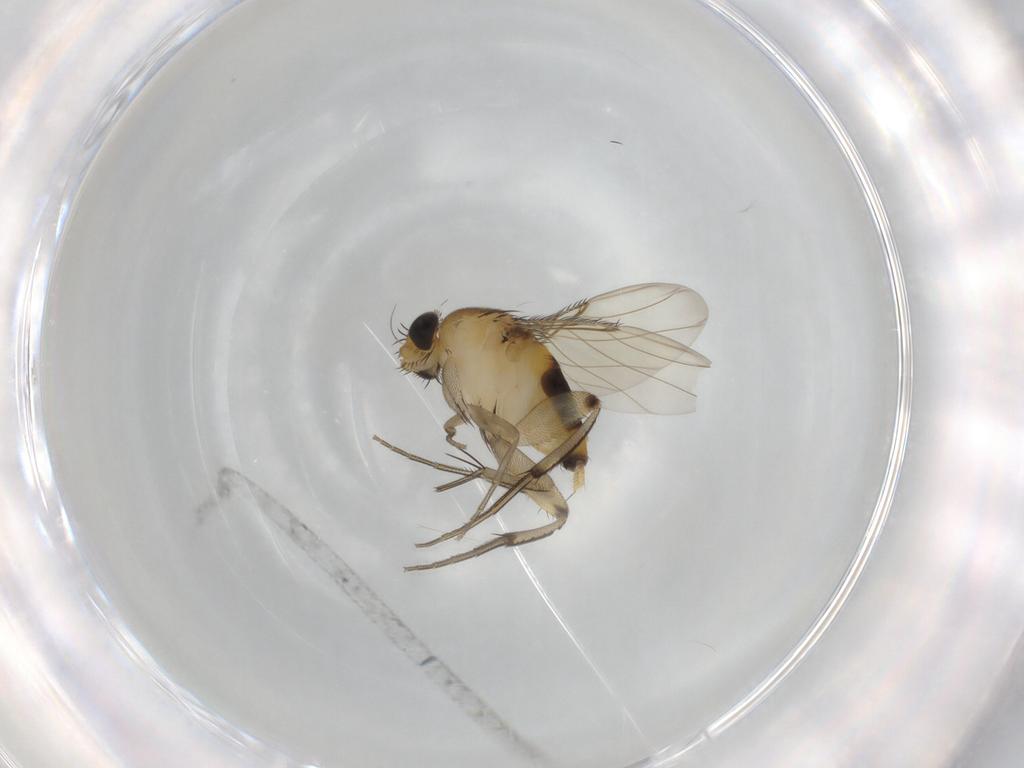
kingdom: Animalia
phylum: Arthropoda
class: Insecta
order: Diptera
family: Phoridae
